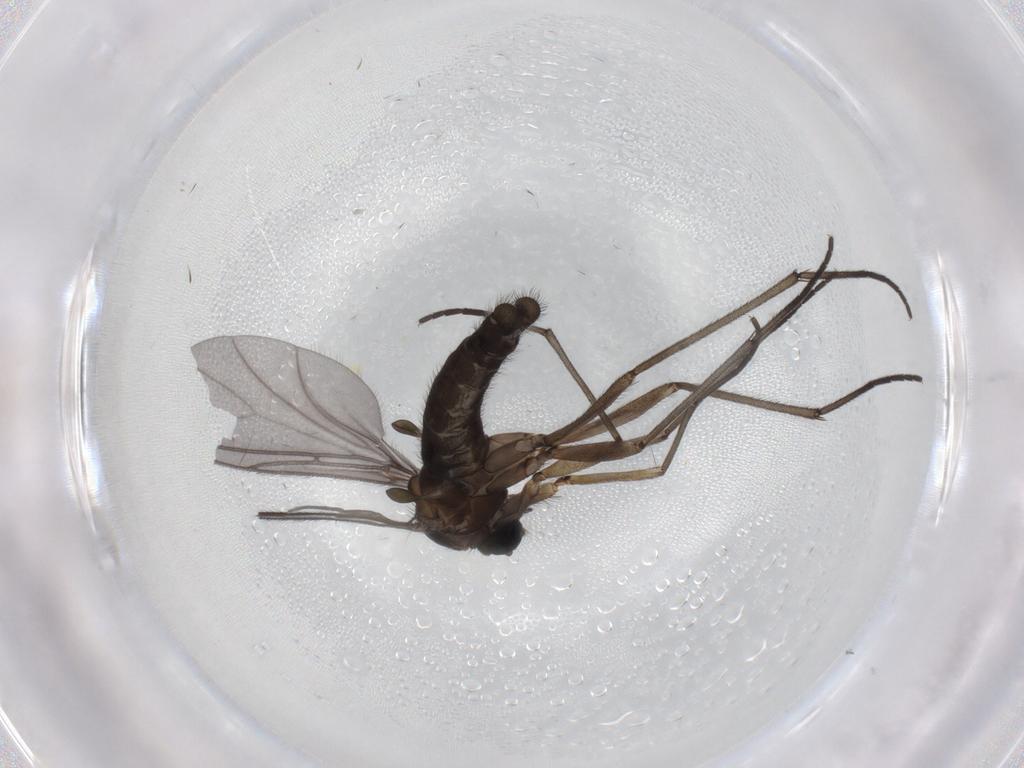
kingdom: Animalia
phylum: Arthropoda
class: Insecta
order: Diptera
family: Sciaridae
